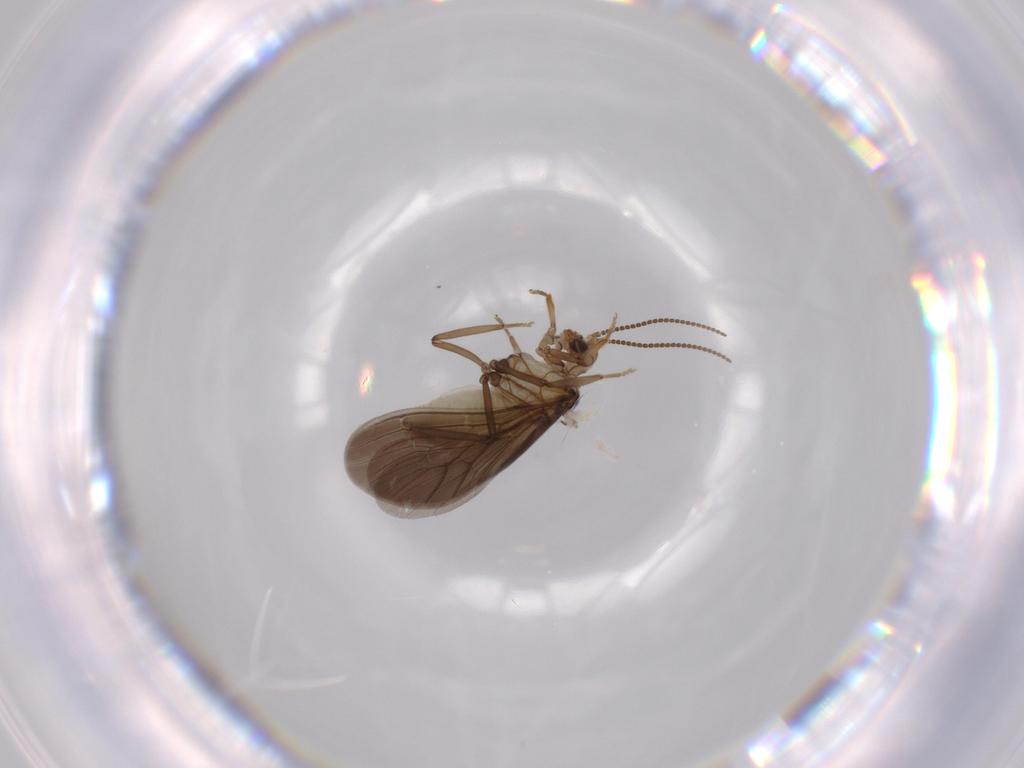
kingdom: Animalia
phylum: Arthropoda
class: Insecta
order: Neuroptera
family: Coniopterygidae
